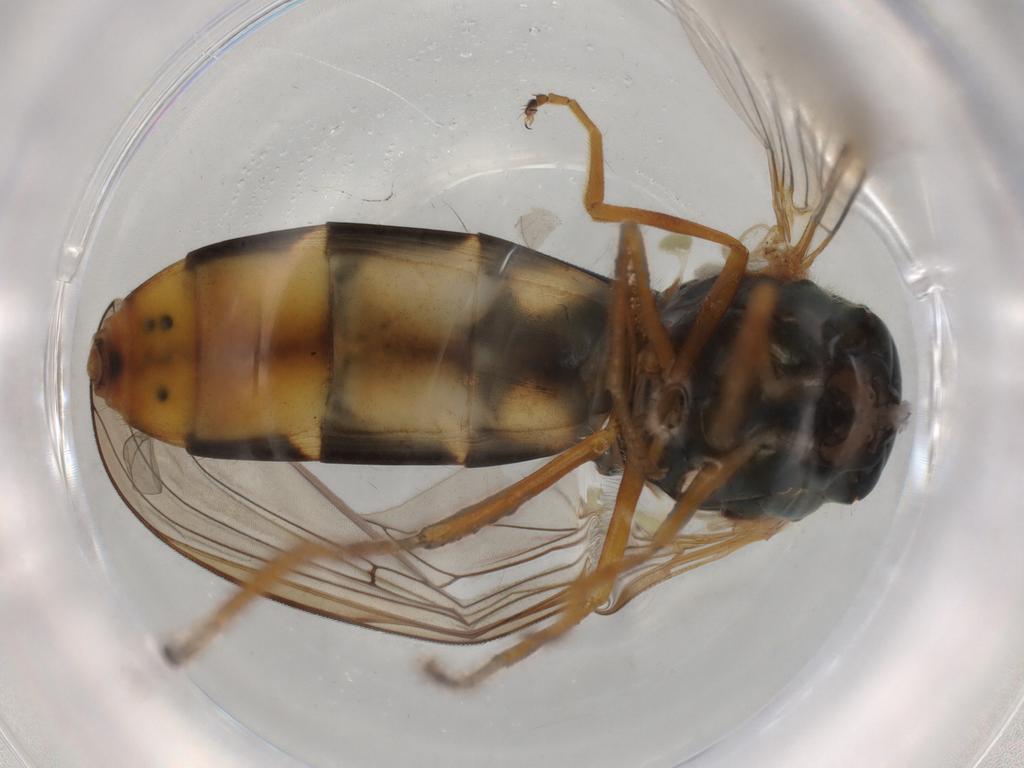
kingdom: Animalia
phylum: Arthropoda
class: Insecta
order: Diptera
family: Syrphidae
